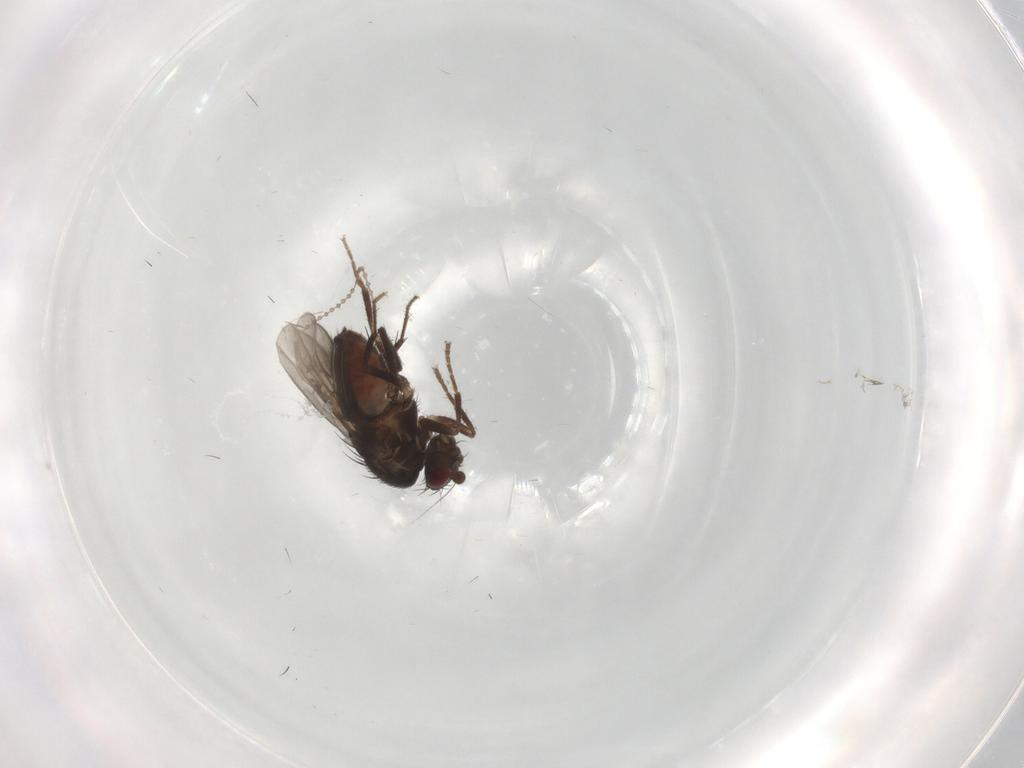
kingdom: Animalia
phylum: Arthropoda
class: Insecta
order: Diptera
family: Sphaeroceridae
